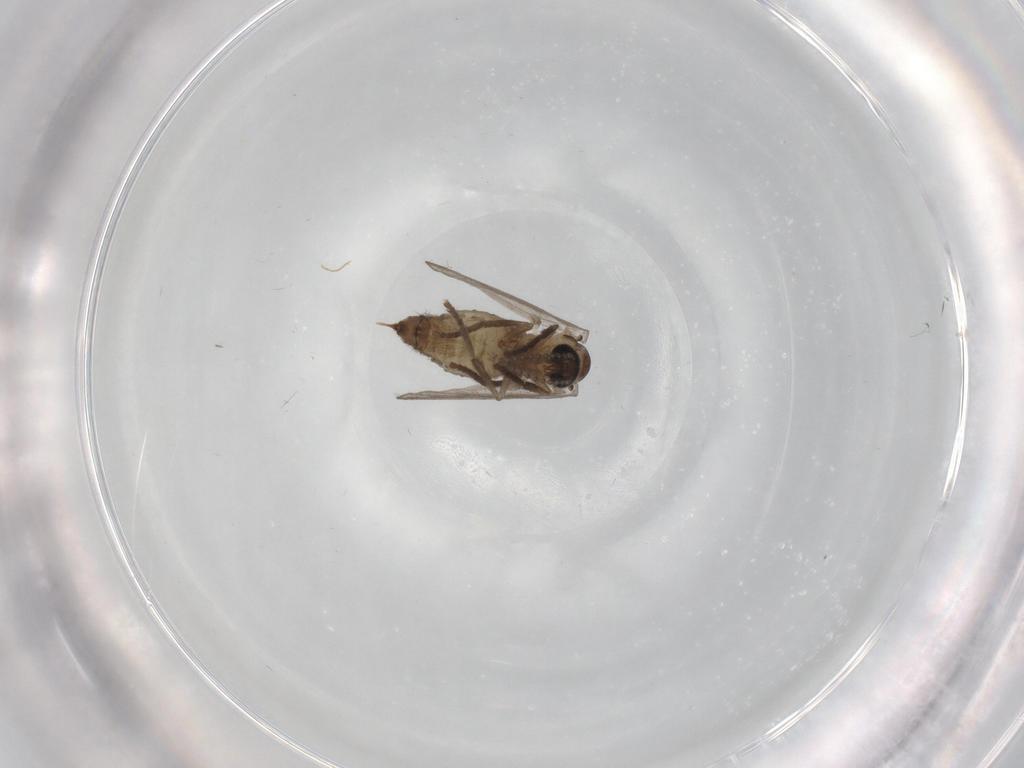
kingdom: Animalia
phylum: Arthropoda
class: Insecta
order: Diptera
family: Psychodidae
